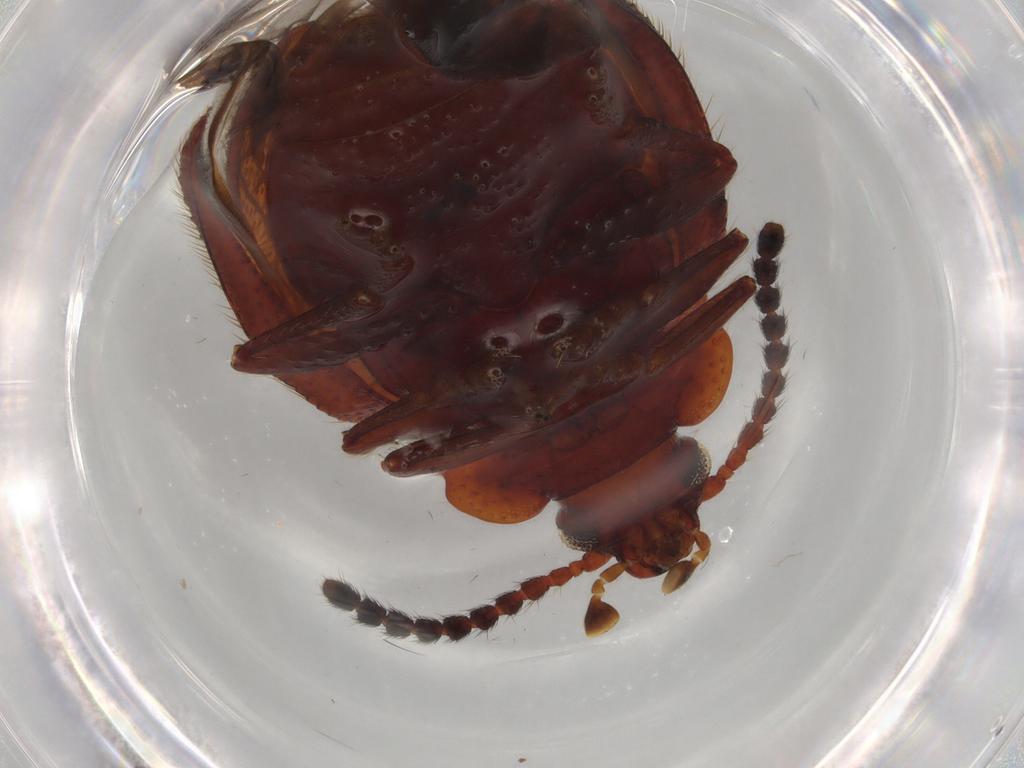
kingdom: Animalia
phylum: Arthropoda
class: Insecta
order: Coleoptera
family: Tenebrionidae
